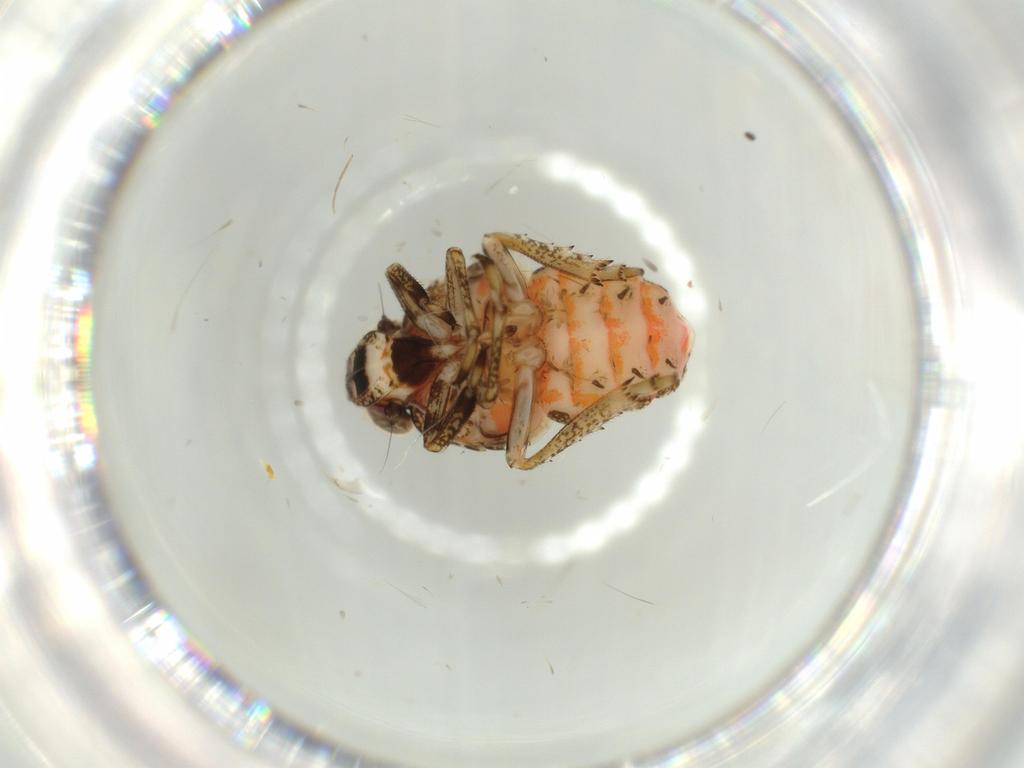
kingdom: Animalia
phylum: Arthropoda
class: Insecta
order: Hemiptera
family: Issidae
